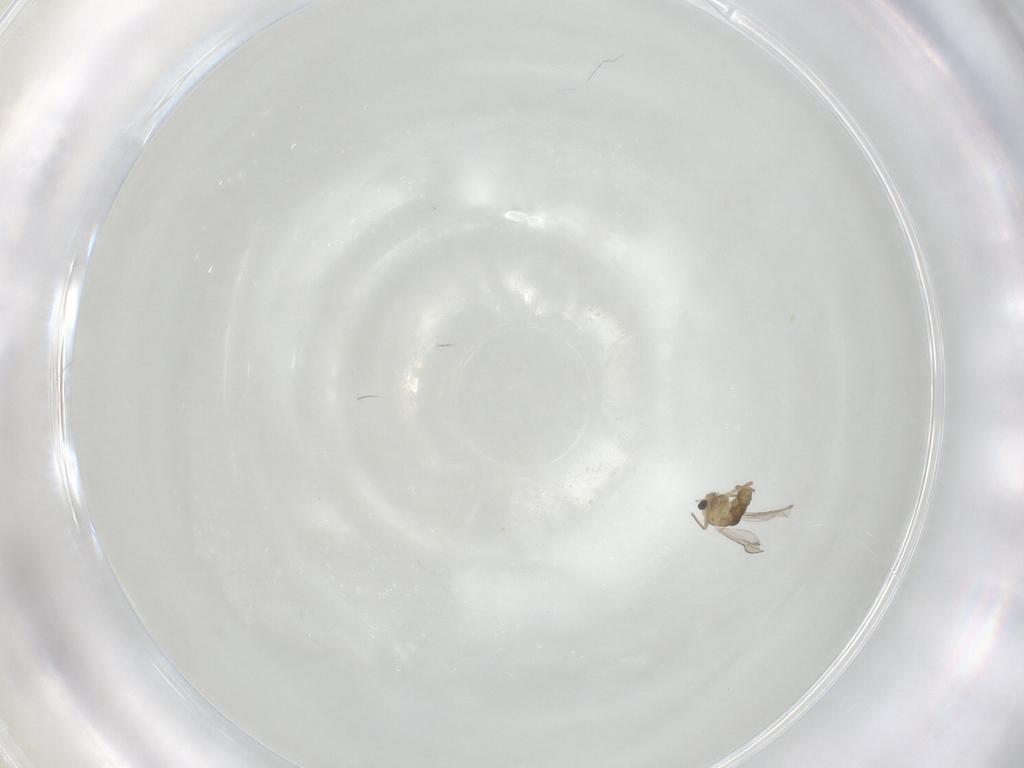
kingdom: Animalia
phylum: Arthropoda
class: Insecta
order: Diptera
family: Chironomidae
